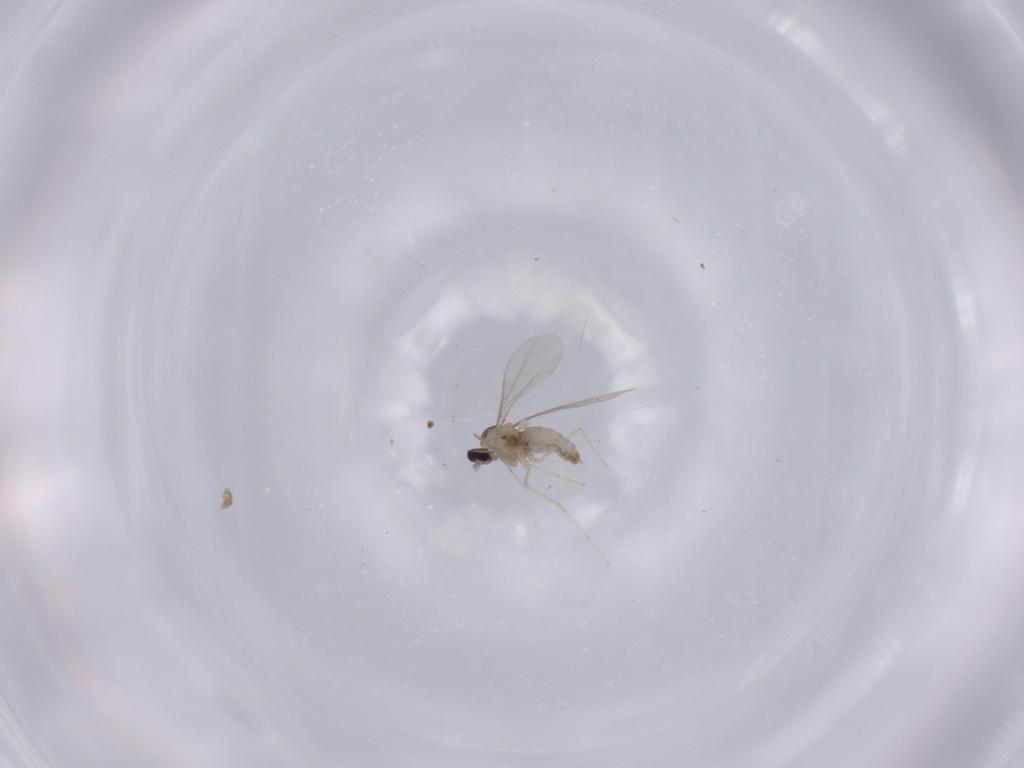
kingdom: Animalia
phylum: Arthropoda
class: Insecta
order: Diptera
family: Cecidomyiidae
